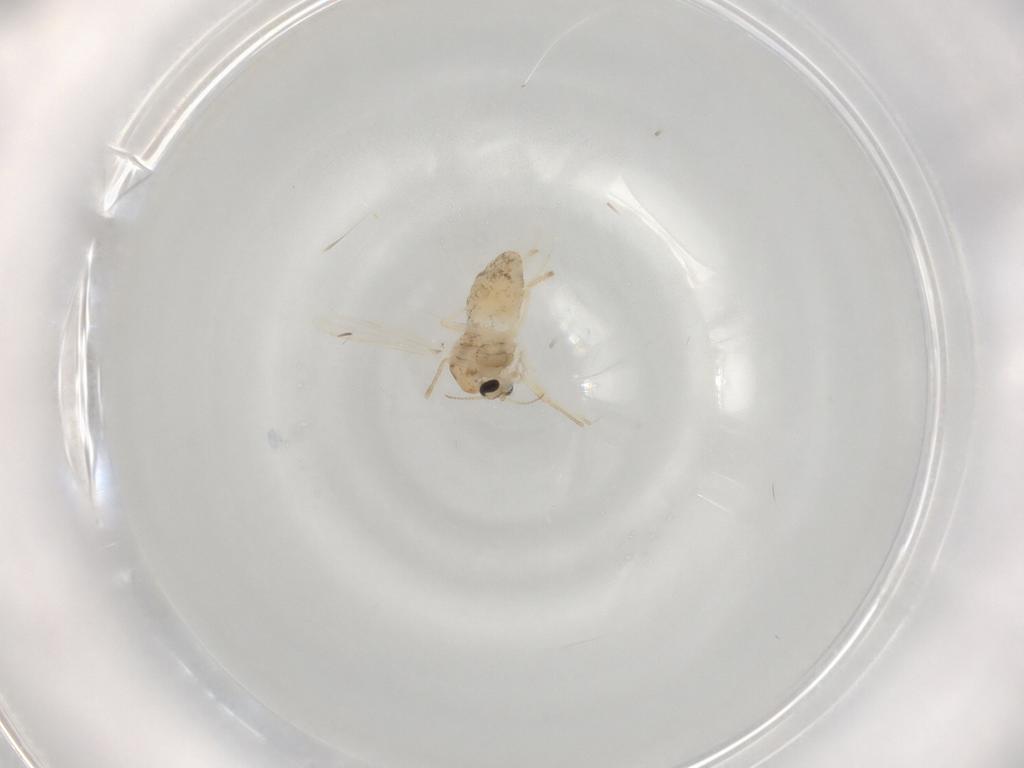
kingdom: Animalia
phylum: Arthropoda
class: Insecta
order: Diptera
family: Chironomidae
